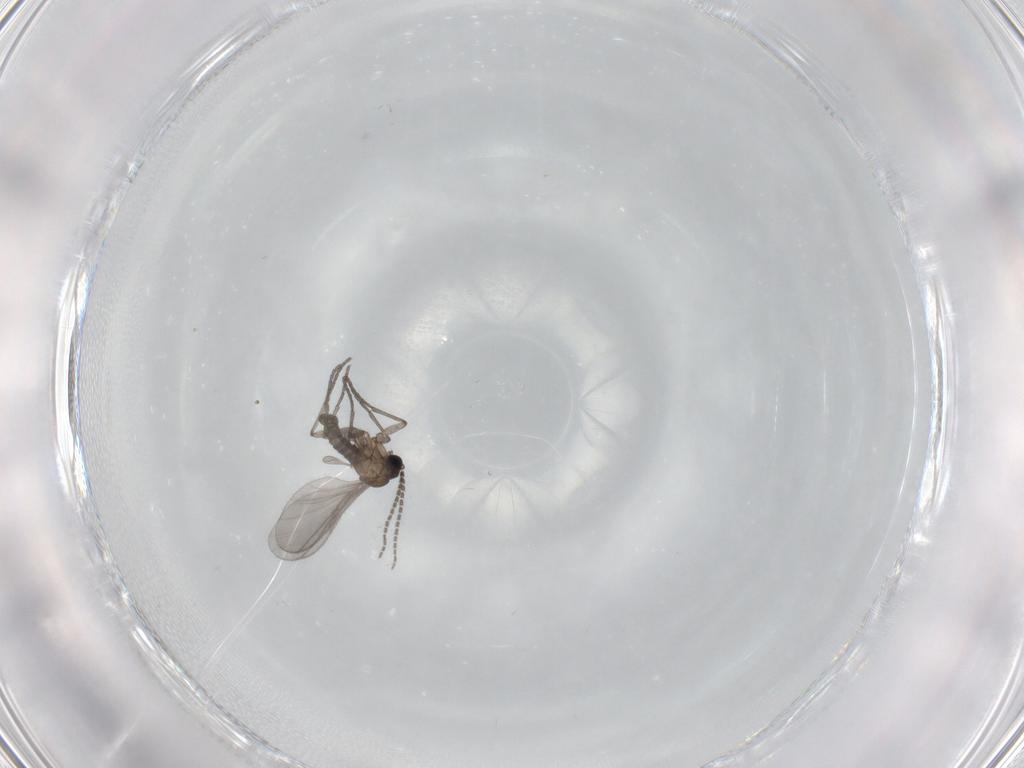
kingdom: Animalia
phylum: Arthropoda
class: Insecta
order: Diptera
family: Sciaridae
